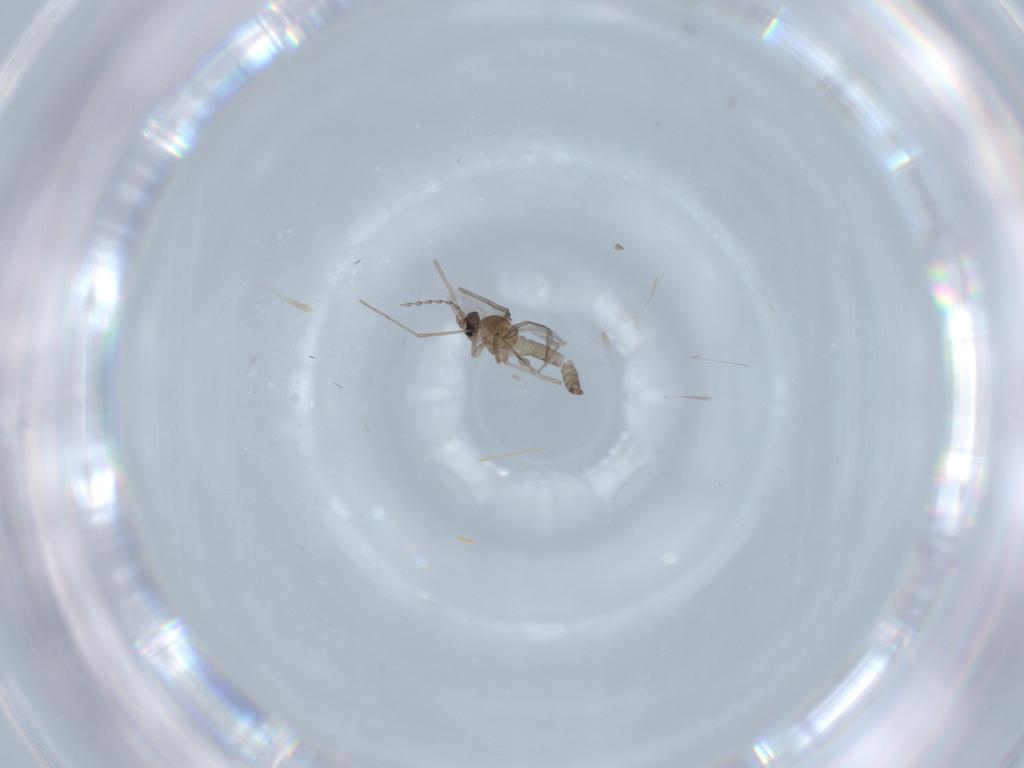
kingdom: Animalia
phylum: Arthropoda
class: Insecta
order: Diptera
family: Cecidomyiidae
